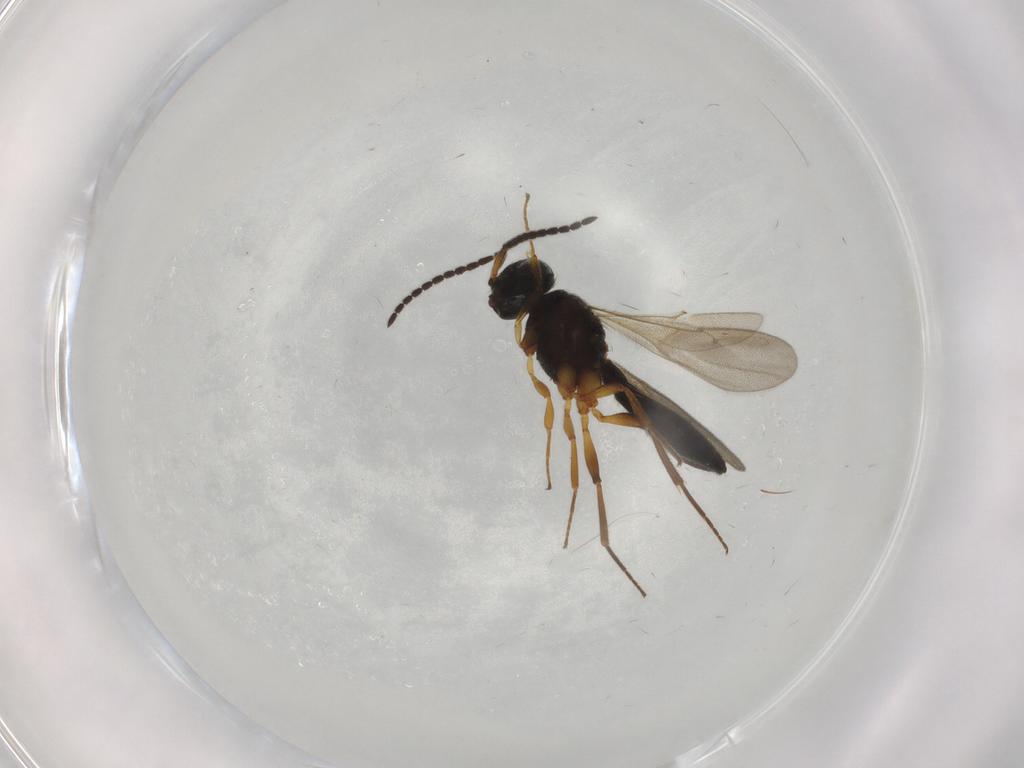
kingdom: Animalia
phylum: Arthropoda
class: Insecta
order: Hymenoptera
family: Scelionidae
